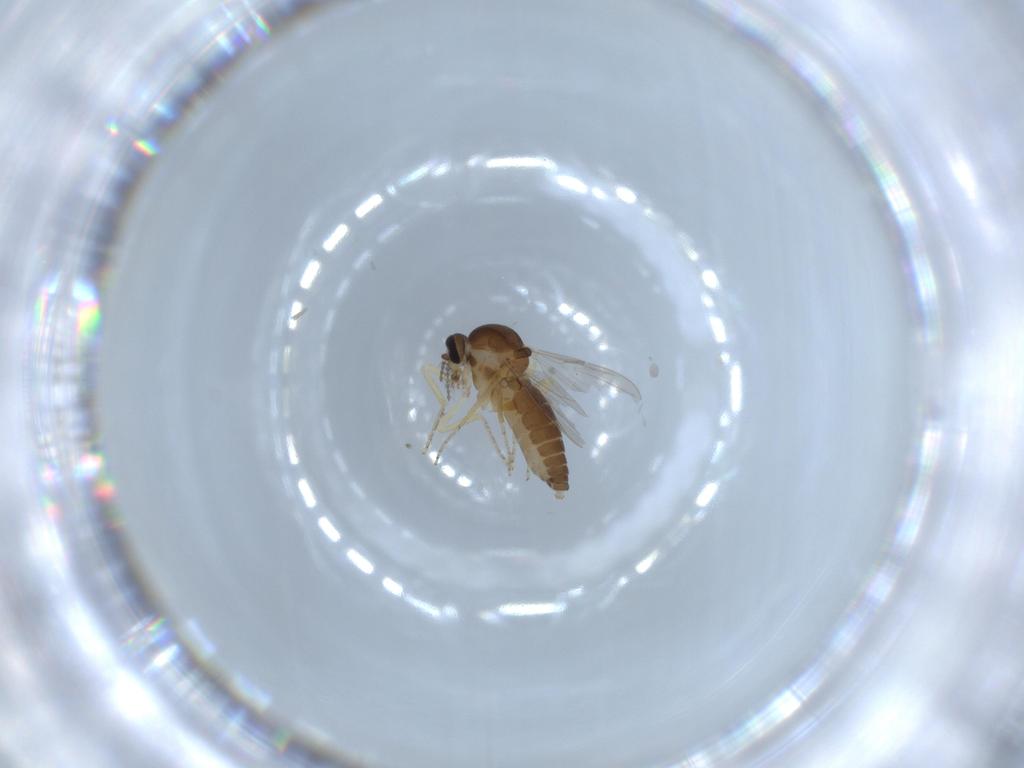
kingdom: Animalia
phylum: Arthropoda
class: Insecta
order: Diptera
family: Ceratopogonidae
